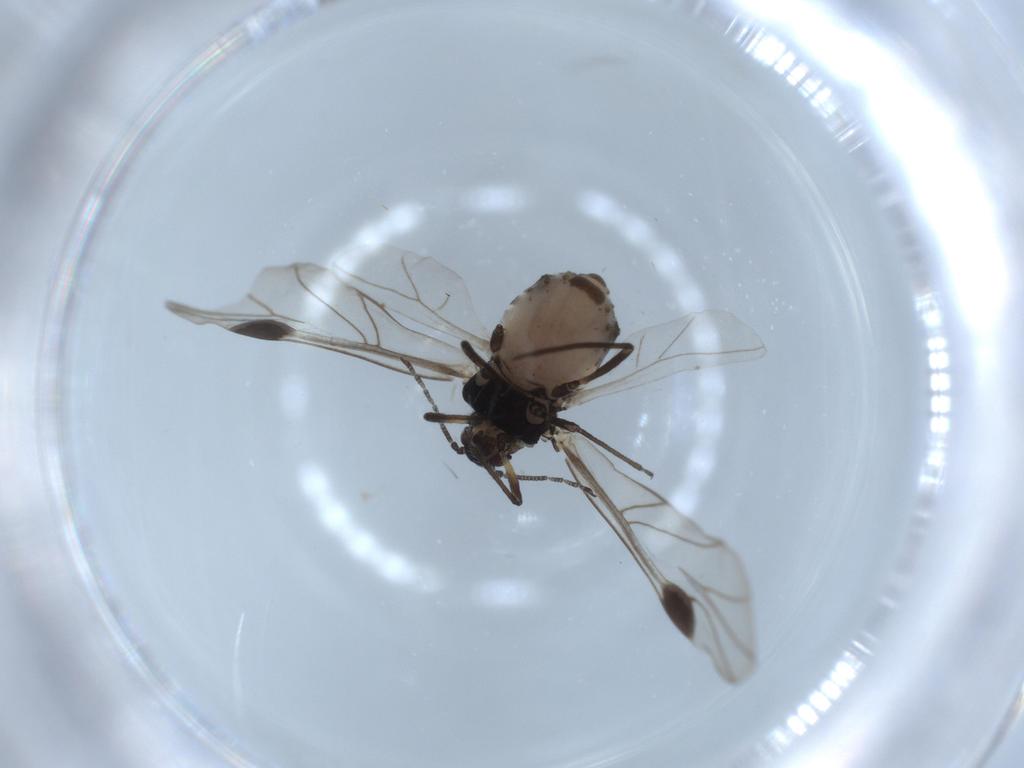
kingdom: Animalia
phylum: Arthropoda
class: Insecta
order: Hemiptera
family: Aphididae
